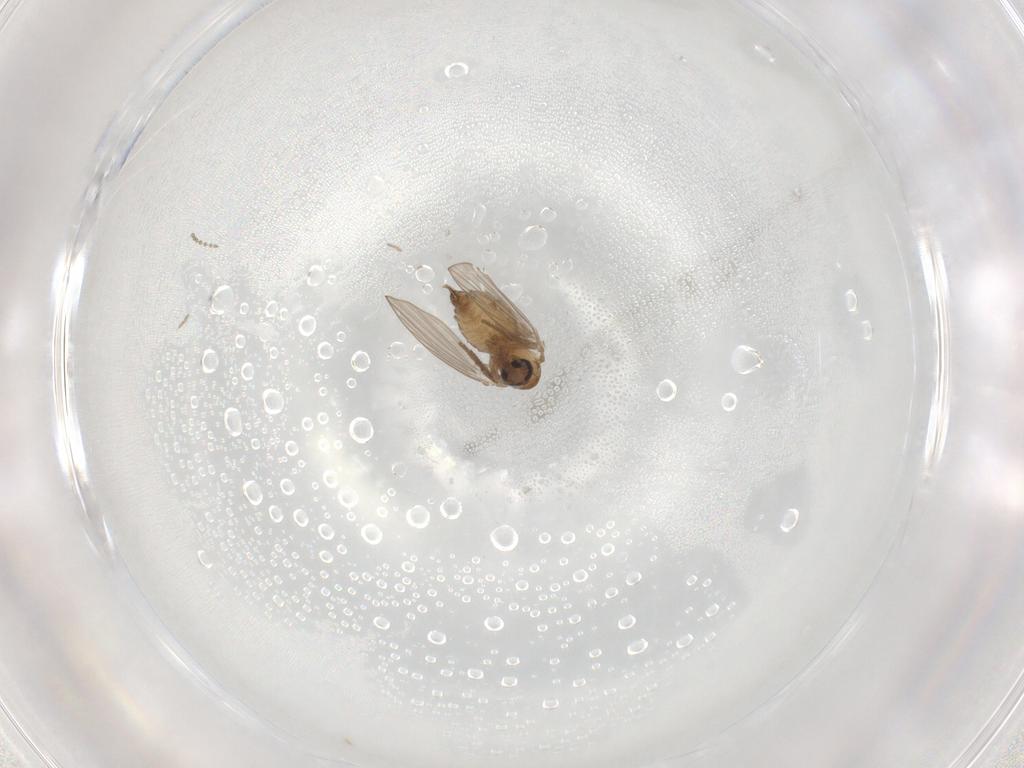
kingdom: Animalia
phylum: Arthropoda
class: Insecta
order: Diptera
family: Psychodidae
